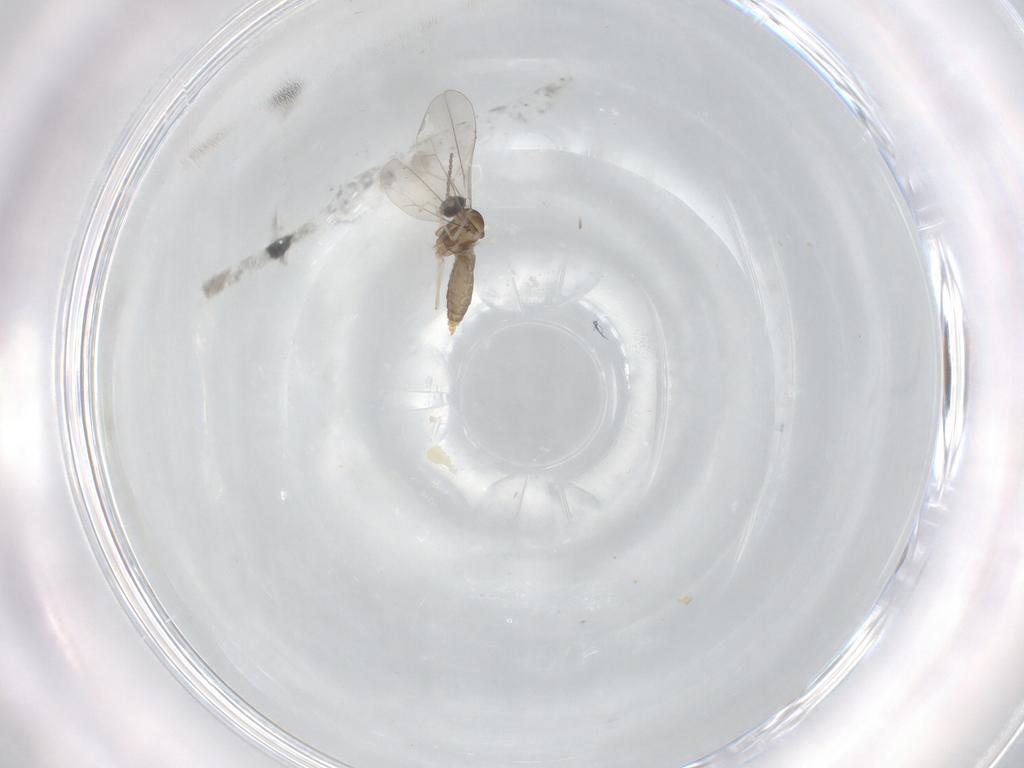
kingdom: Animalia
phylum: Arthropoda
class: Insecta
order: Diptera
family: Cecidomyiidae
